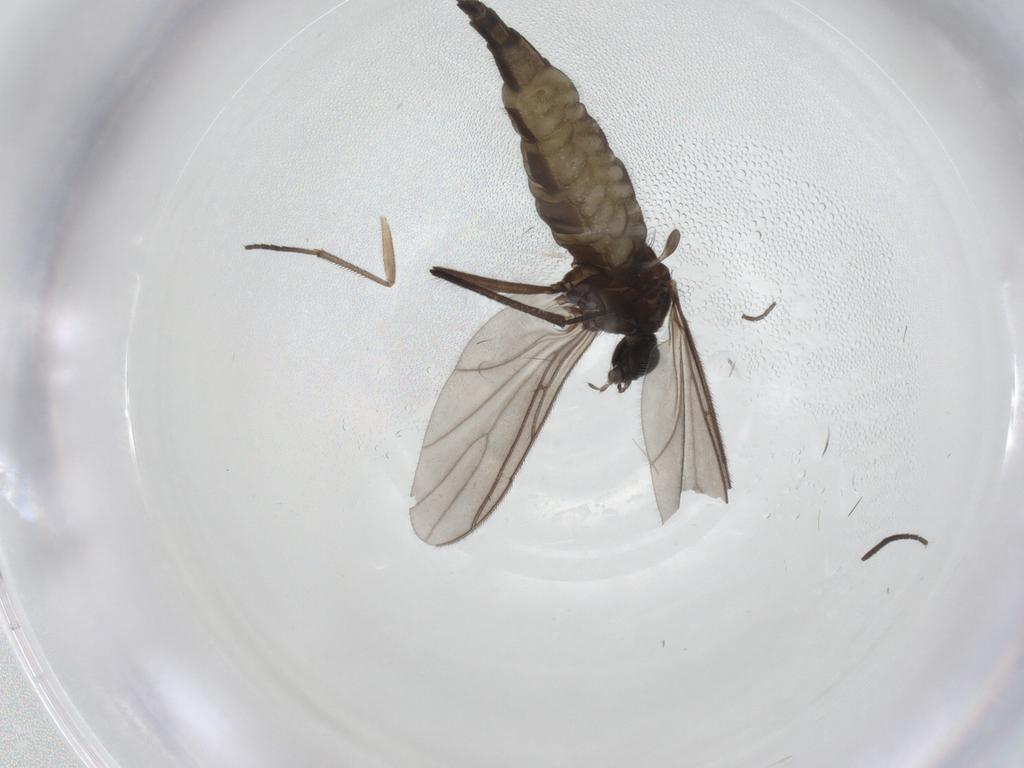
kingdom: Animalia
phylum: Arthropoda
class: Insecta
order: Diptera
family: Sciaridae
